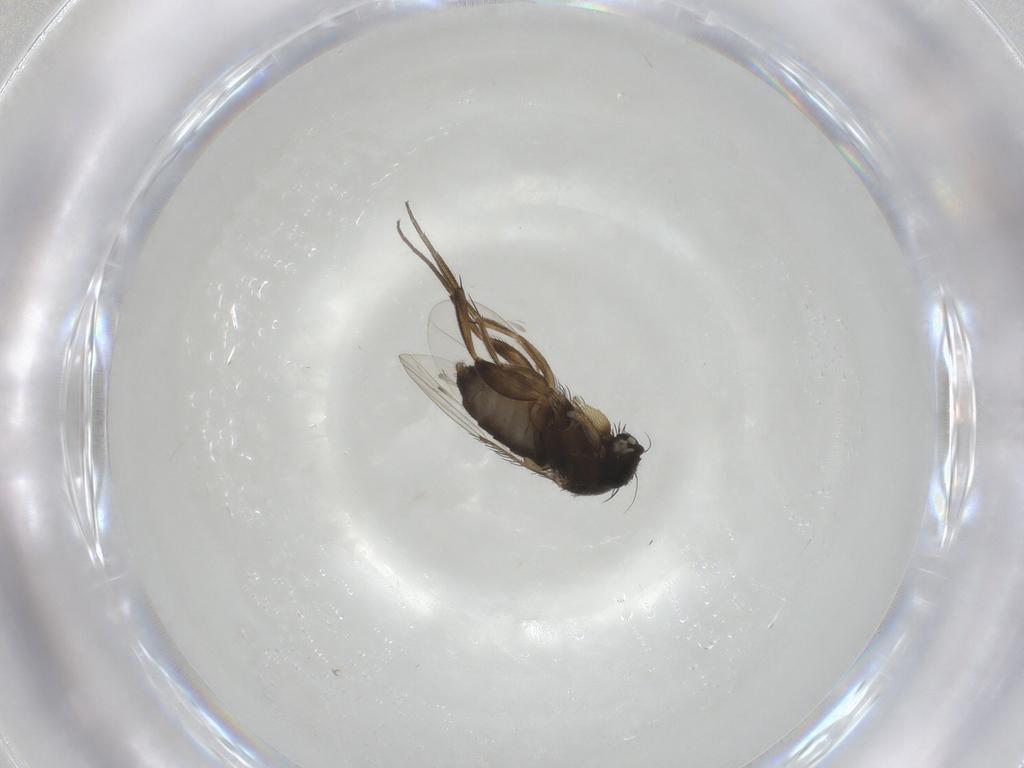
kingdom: Animalia
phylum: Arthropoda
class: Insecta
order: Diptera
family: Phoridae
